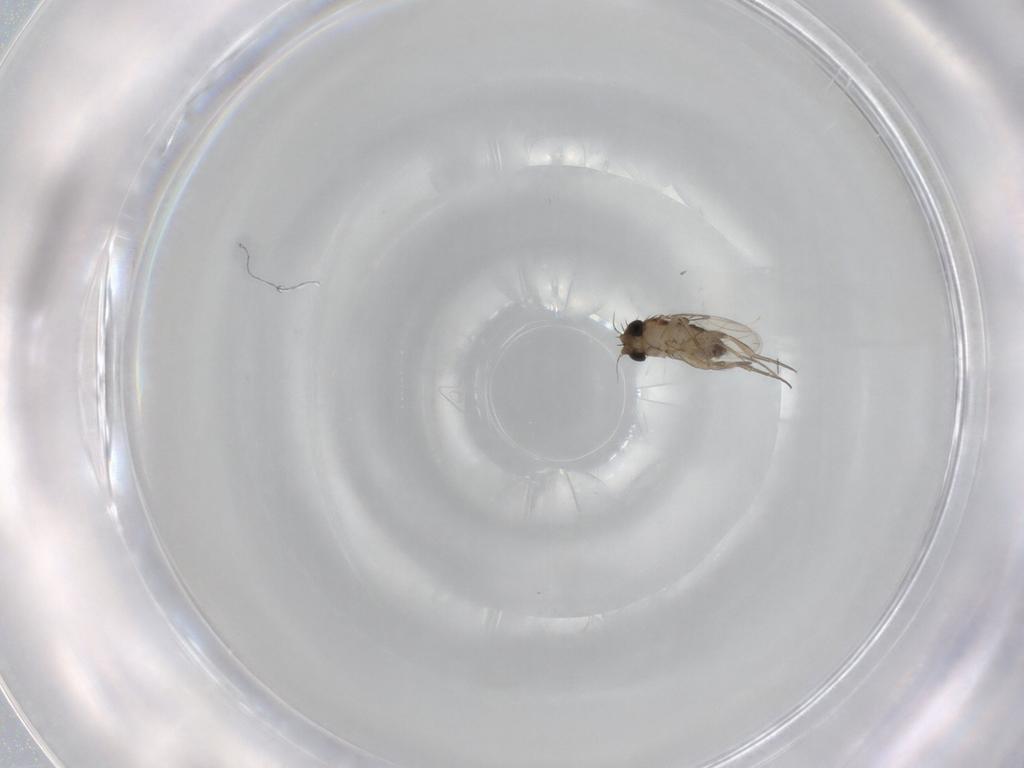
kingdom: Animalia
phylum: Arthropoda
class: Insecta
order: Diptera
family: Phoridae
